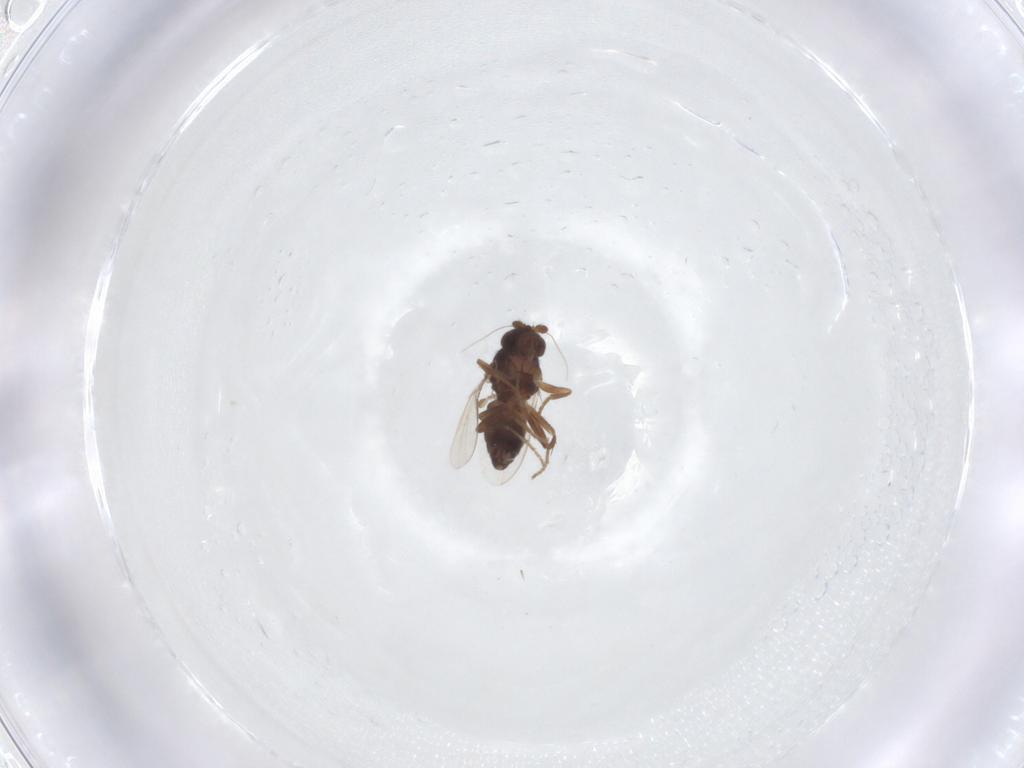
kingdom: Animalia
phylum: Arthropoda
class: Insecta
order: Diptera
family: Sphaeroceridae
